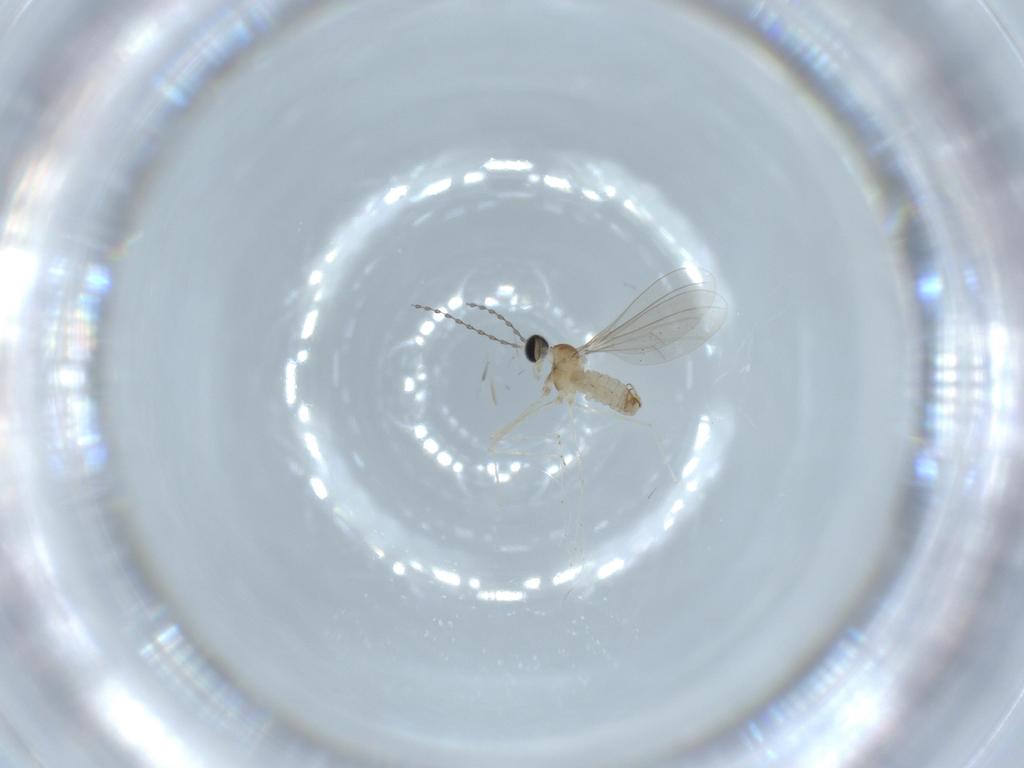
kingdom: Animalia
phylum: Arthropoda
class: Insecta
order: Diptera
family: Cecidomyiidae
